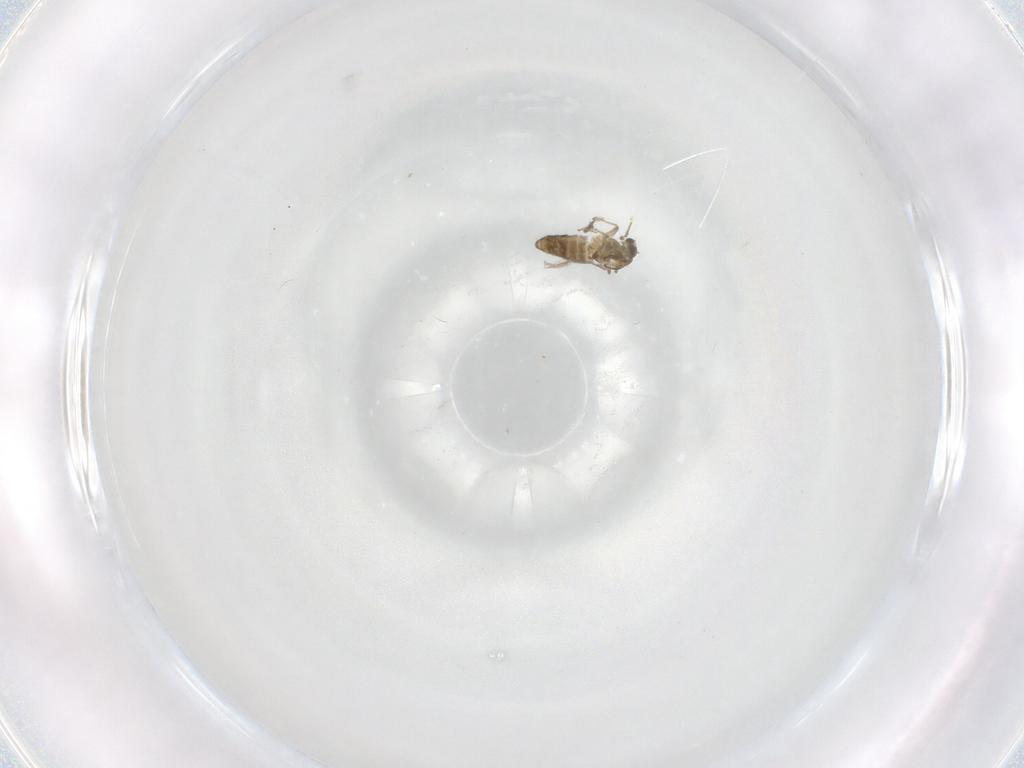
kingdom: Animalia
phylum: Arthropoda
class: Insecta
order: Diptera
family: Chironomidae
